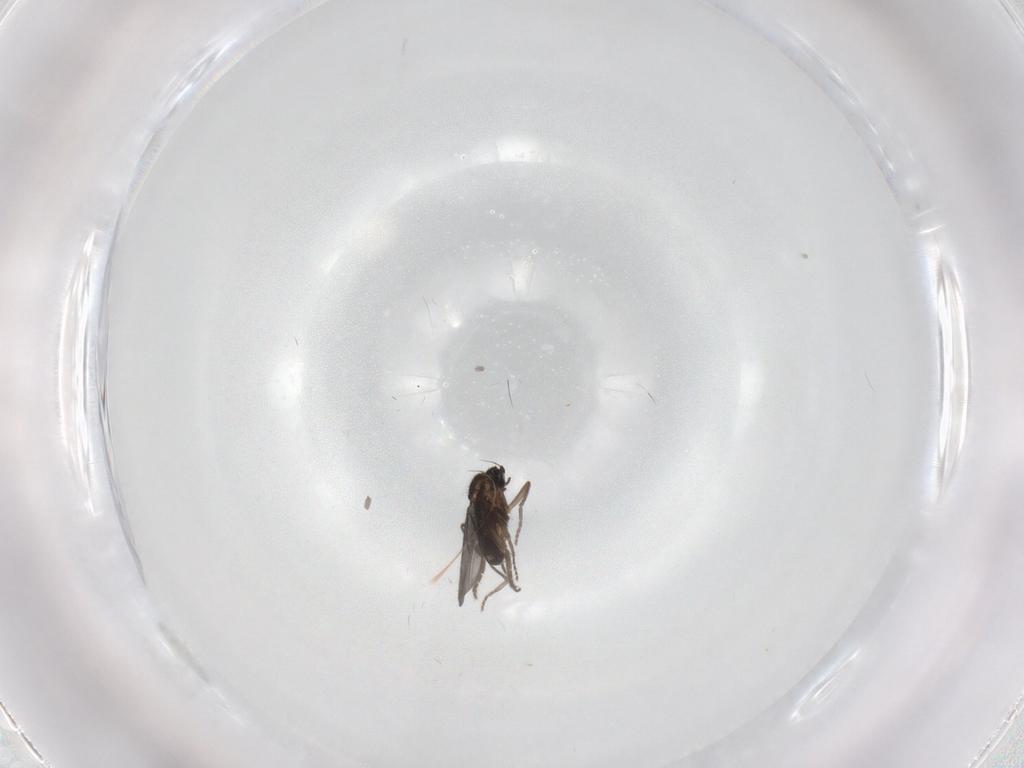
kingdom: Animalia
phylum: Arthropoda
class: Insecta
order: Diptera
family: Phoridae
